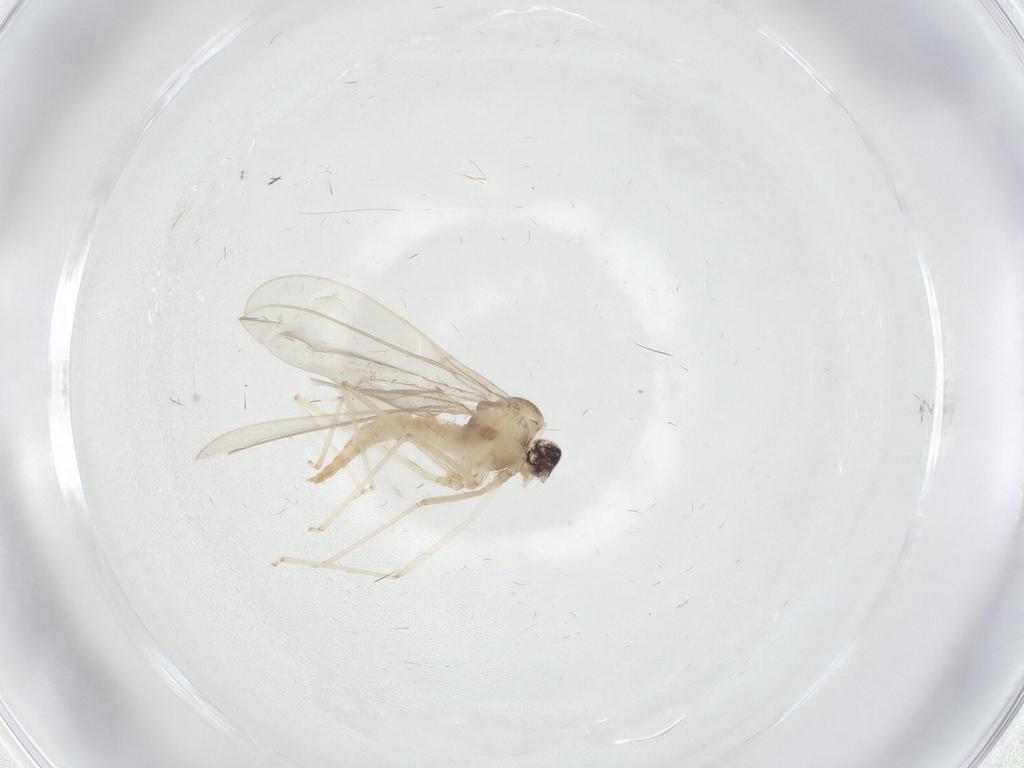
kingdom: Animalia
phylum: Arthropoda
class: Insecta
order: Diptera
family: Cecidomyiidae
